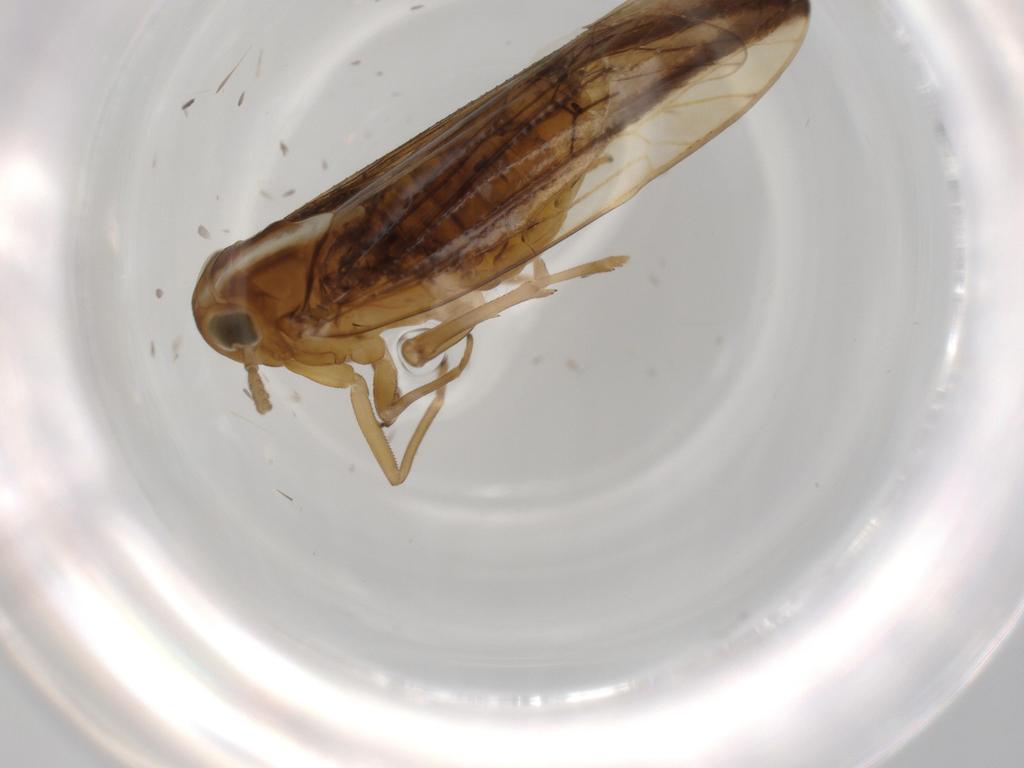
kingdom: Animalia
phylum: Arthropoda
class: Insecta
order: Hemiptera
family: Delphacidae
